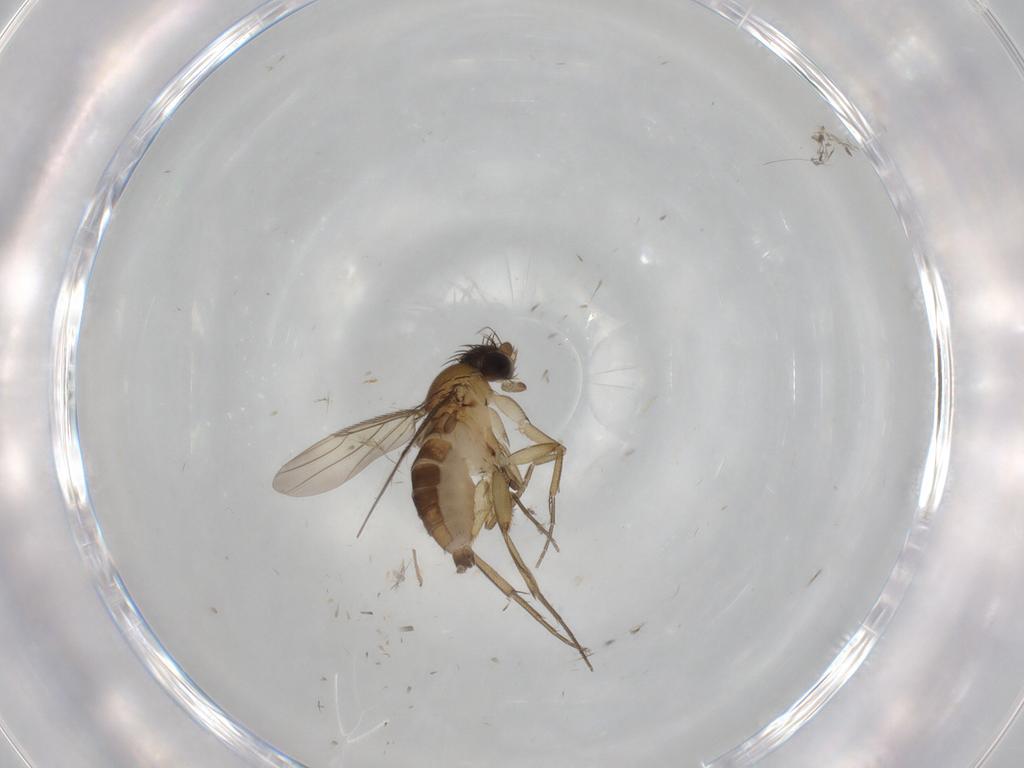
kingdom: Animalia
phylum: Arthropoda
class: Insecta
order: Diptera
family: Phoridae
